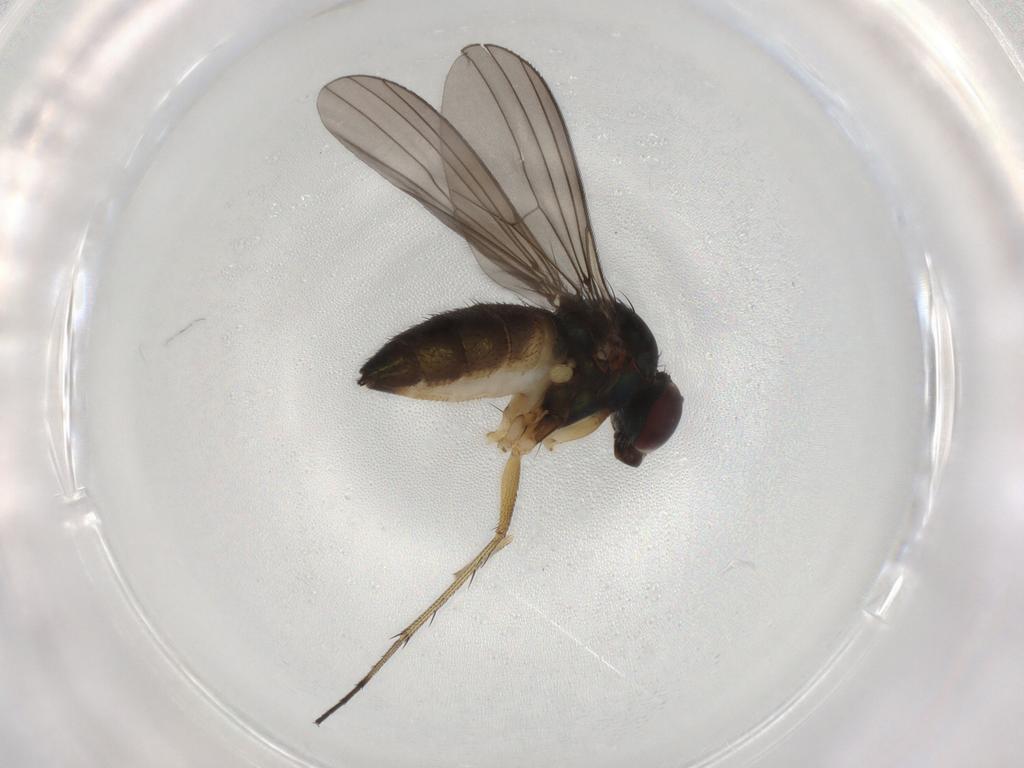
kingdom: Animalia
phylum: Arthropoda
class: Insecta
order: Diptera
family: Dolichopodidae
